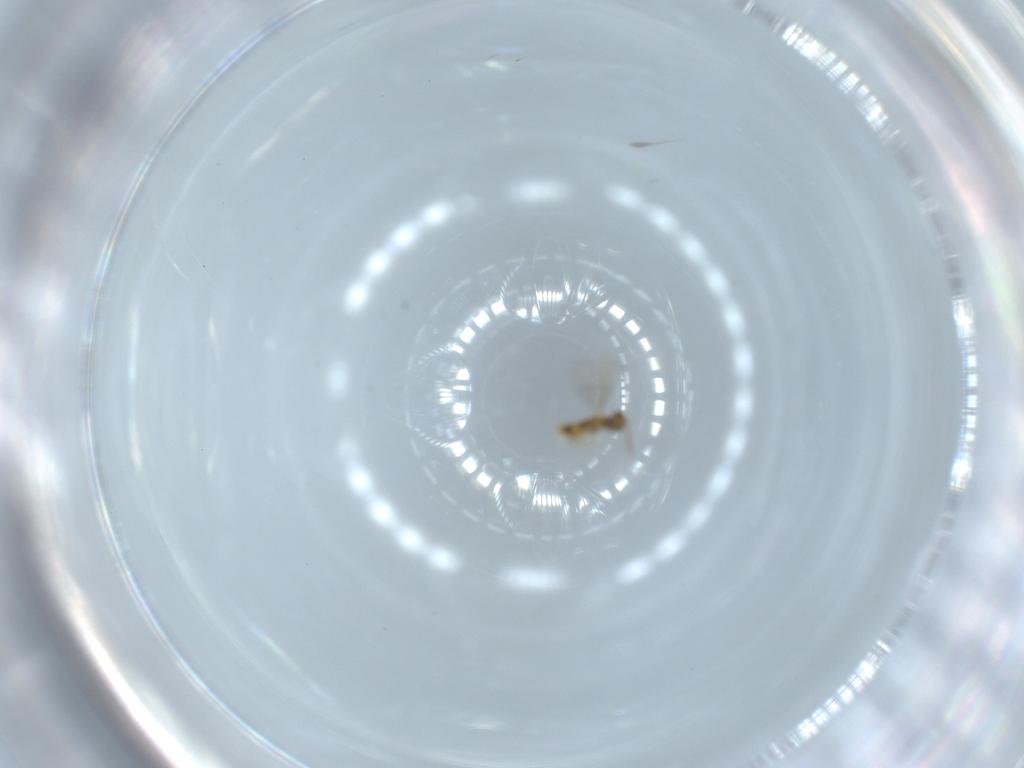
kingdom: Animalia
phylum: Arthropoda
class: Insecta
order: Hymenoptera
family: Aphelinidae
